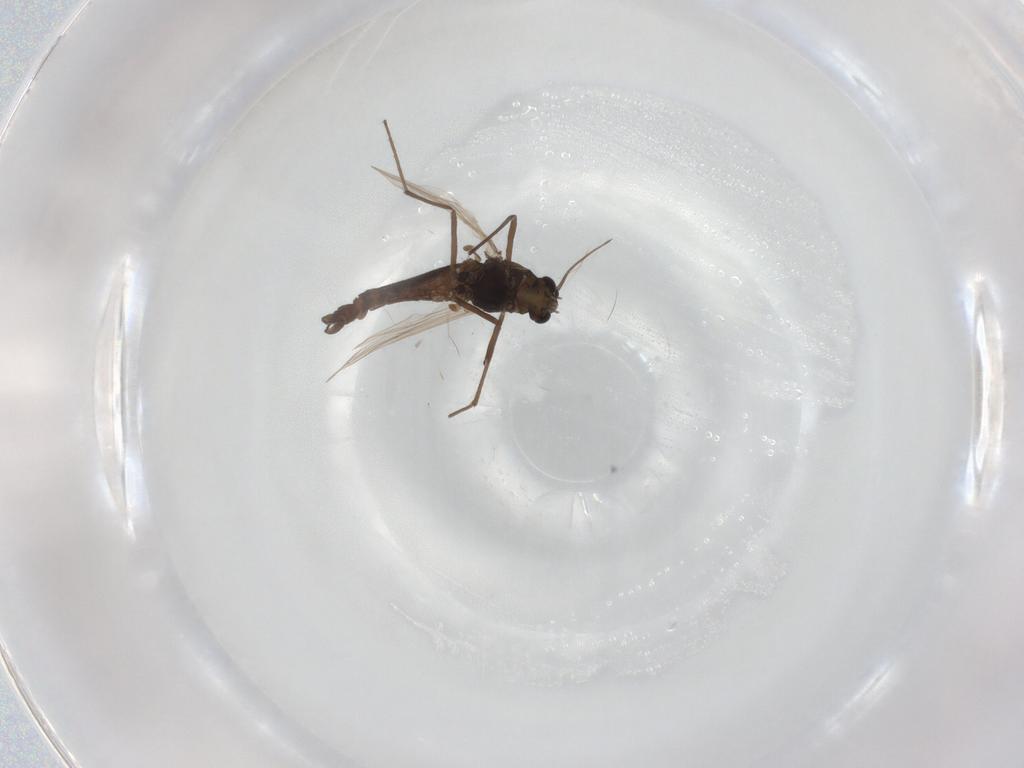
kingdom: Animalia
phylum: Arthropoda
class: Insecta
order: Diptera
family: Chironomidae
